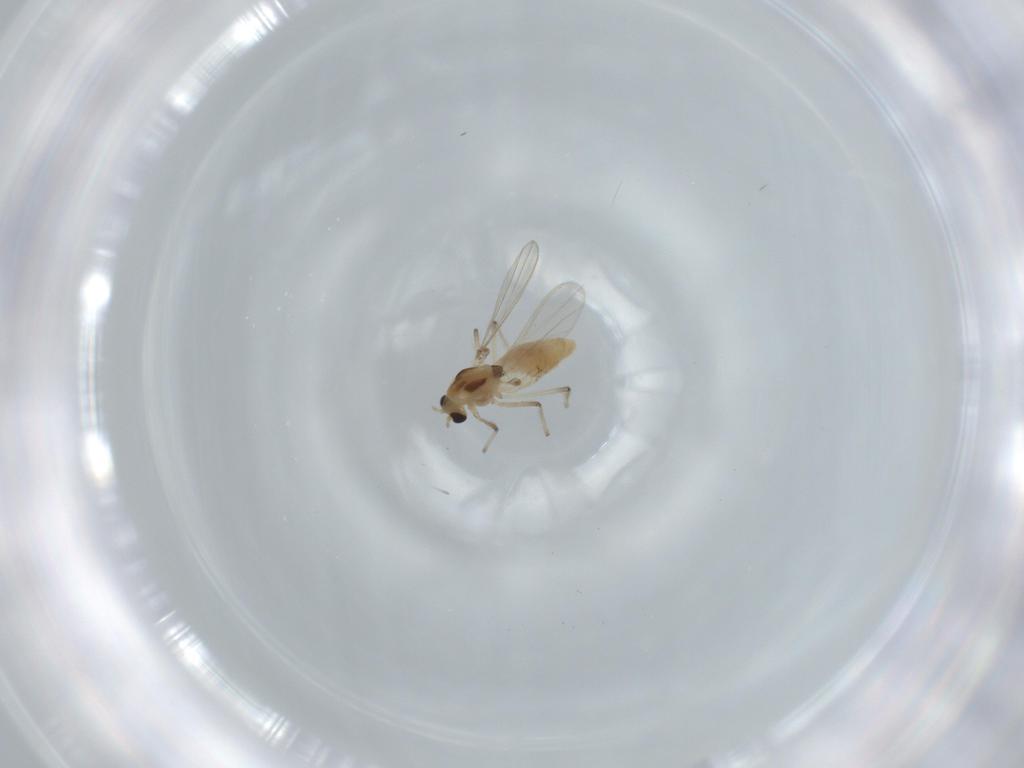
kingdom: Animalia
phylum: Arthropoda
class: Insecta
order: Diptera
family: Chironomidae
